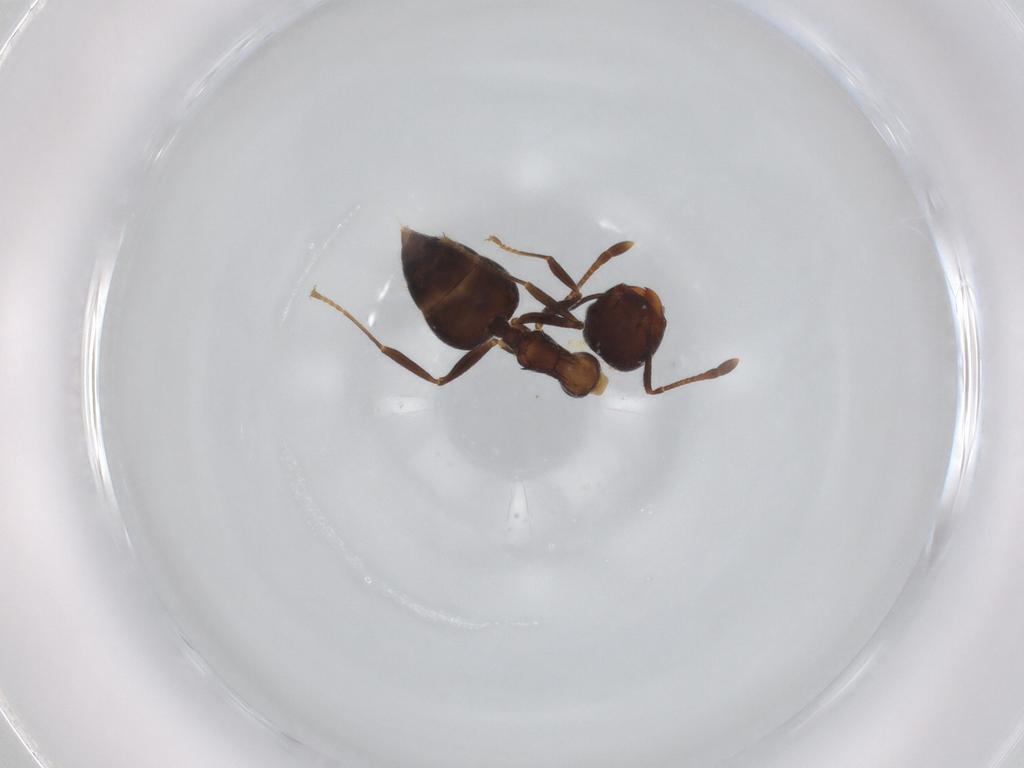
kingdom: Animalia
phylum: Arthropoda
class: Insecta
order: Hymenoptera
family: Formicidae
